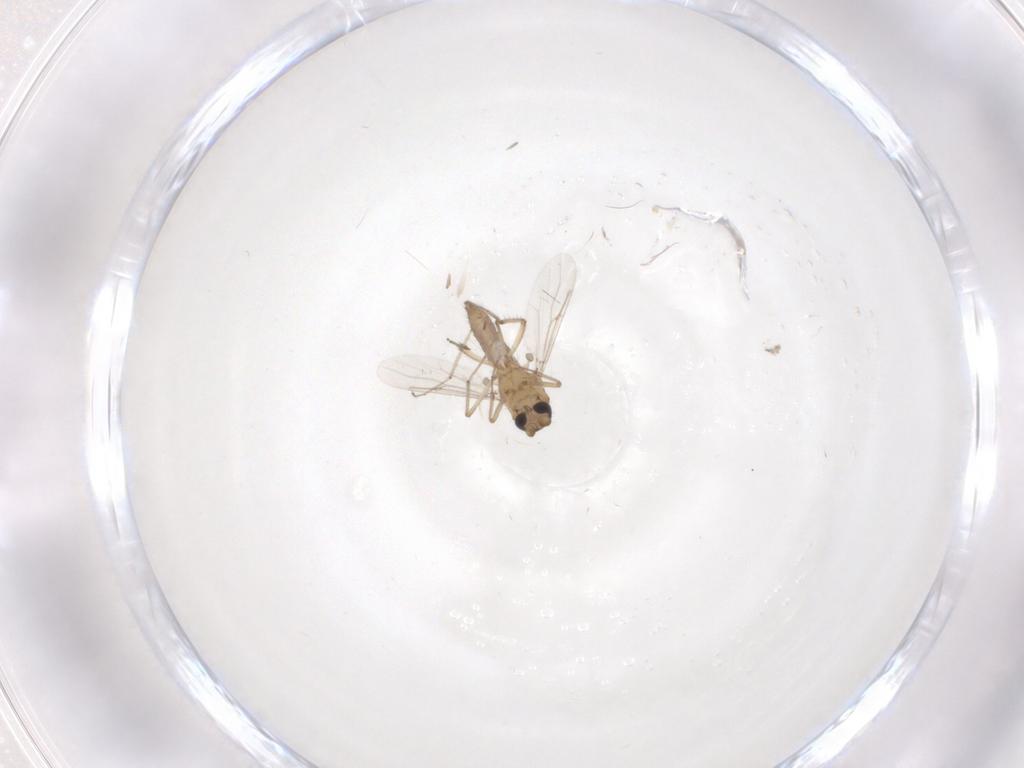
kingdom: Animalia
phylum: Arthropoda
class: Insecta
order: Diptera
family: Ceratopogonidae
